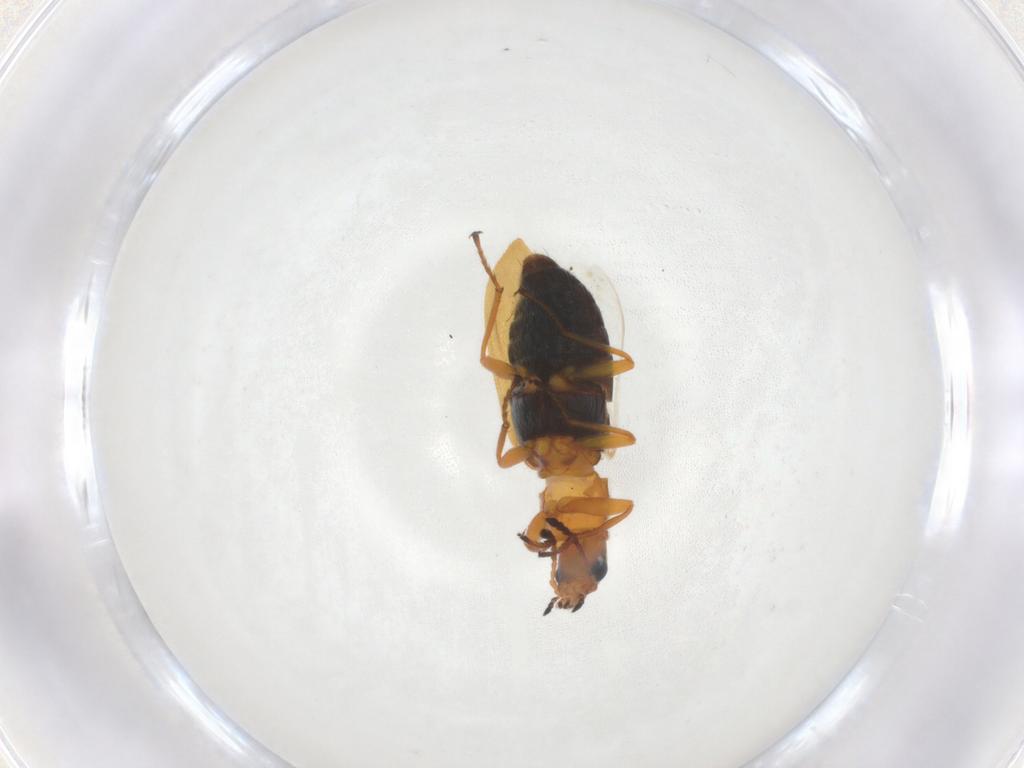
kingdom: Animalia
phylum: Arthropoda
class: Insecta
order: Coleoptera
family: Melyridae
